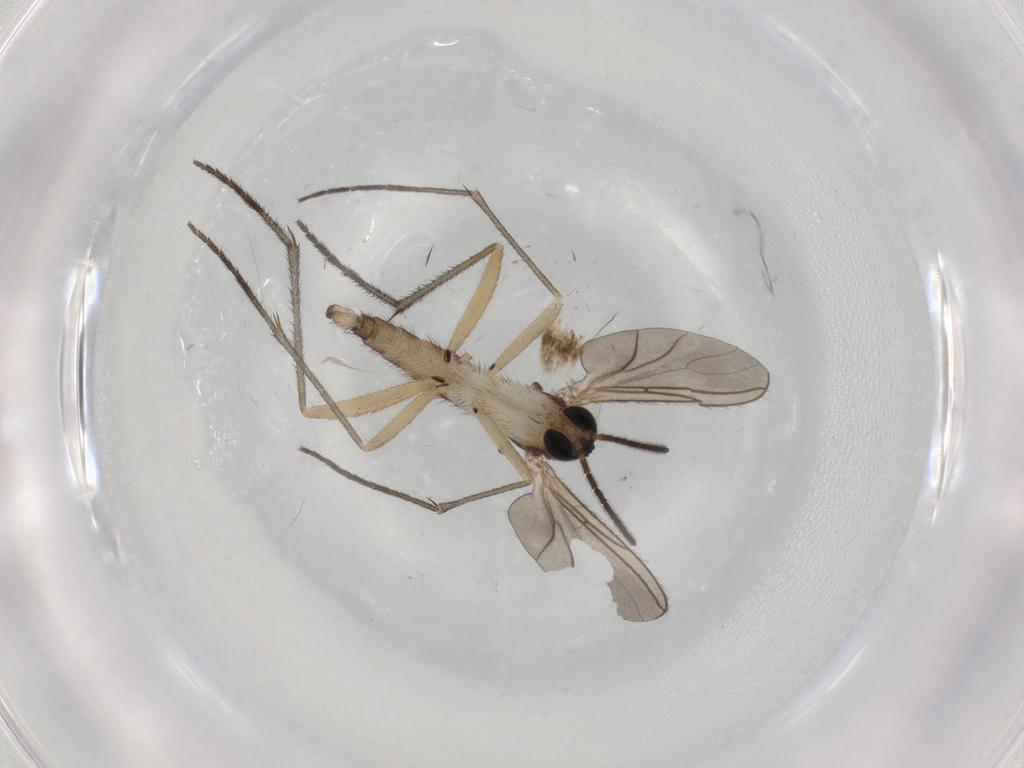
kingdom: Animalia
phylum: Arthropoda
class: Insecta
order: Diptera
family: Sciaridae
